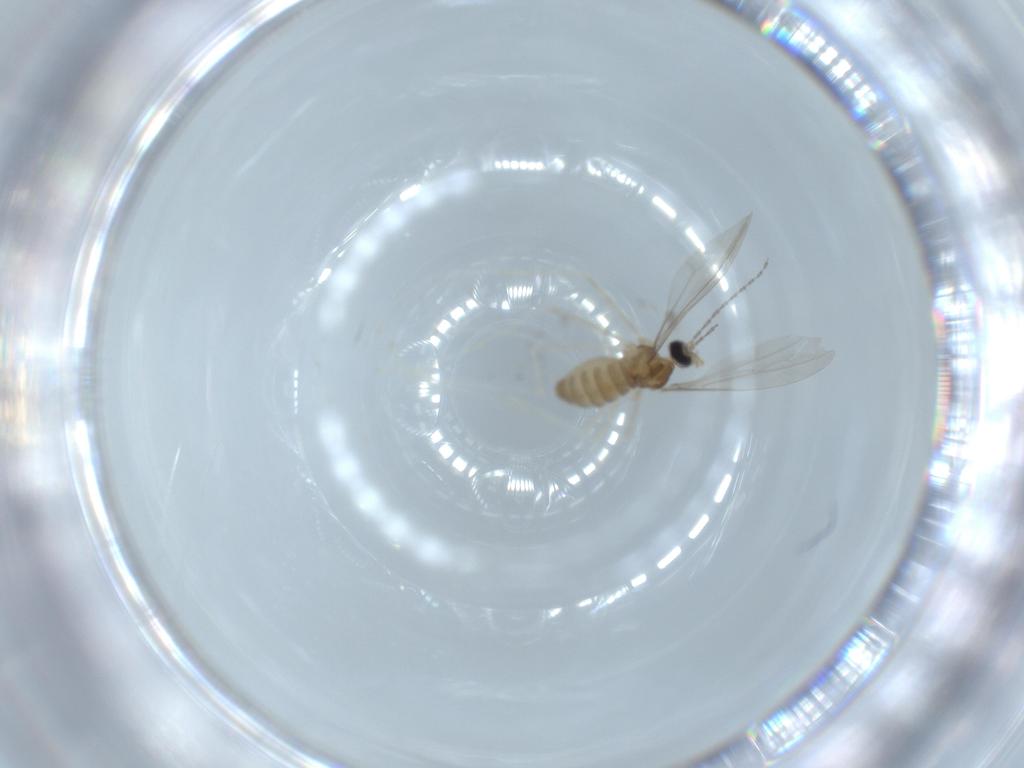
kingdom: Animalia
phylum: Arthropoda
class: Insecta
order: Diptera
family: Cecidomyiidae
